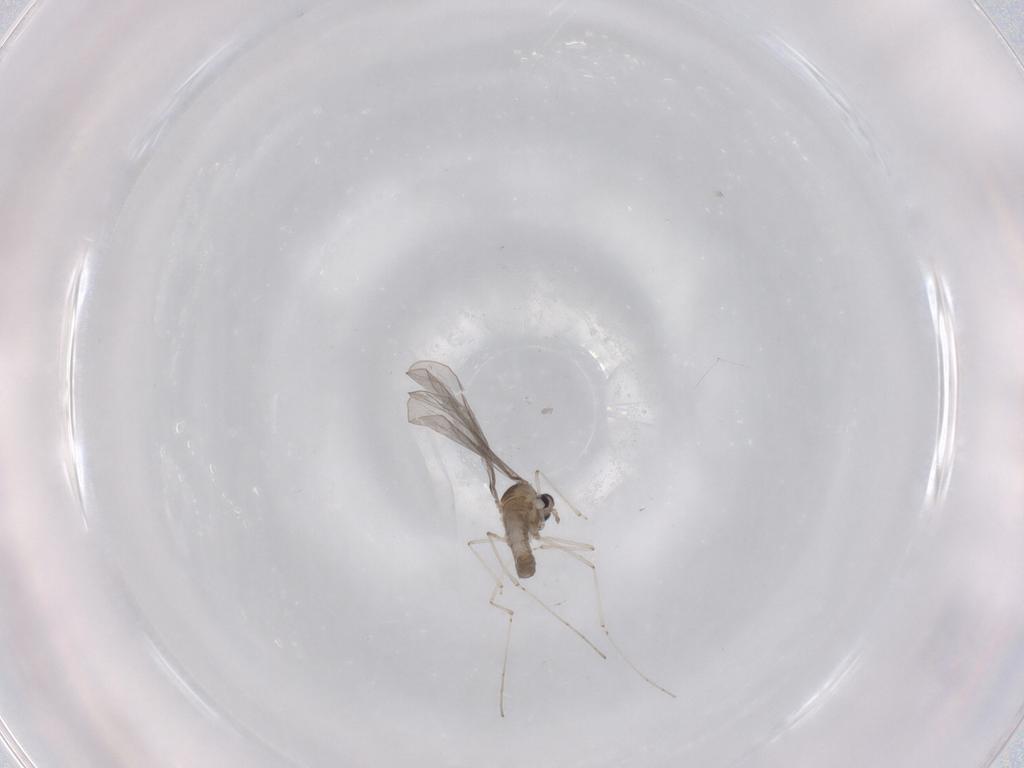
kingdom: Animalia
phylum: Arthropoda
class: Insecta
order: Diptera
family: Cecidomyiidae
